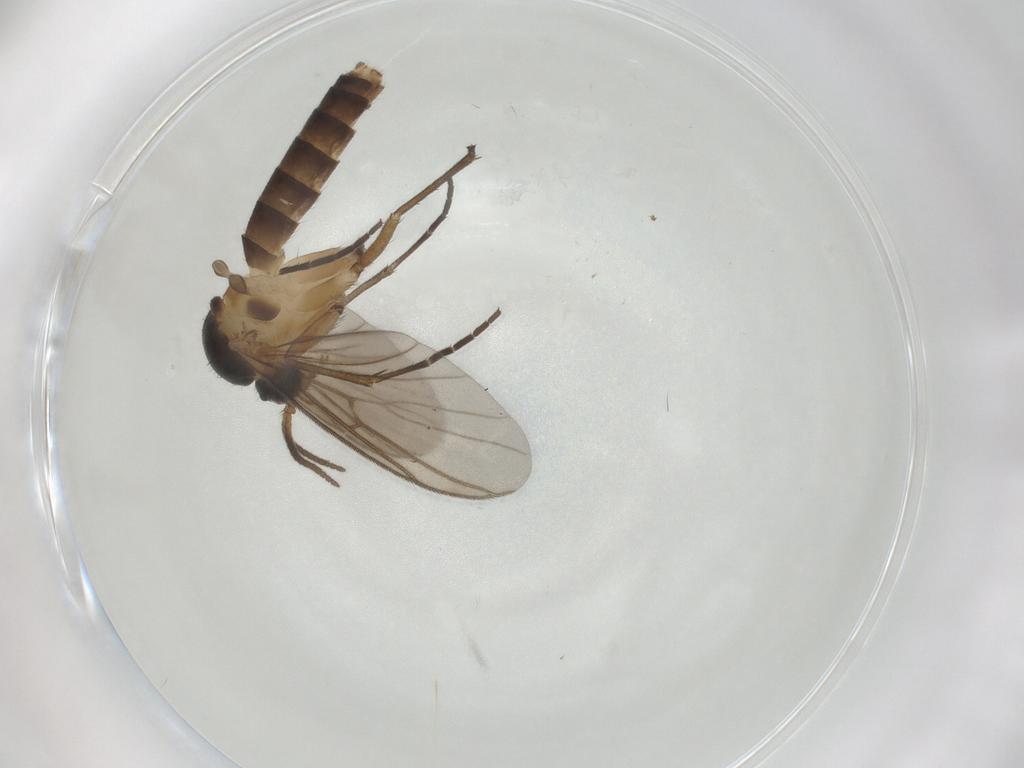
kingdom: Animalia
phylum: Arthropoda
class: Insecta
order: Diptera
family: Mycetophilidae
